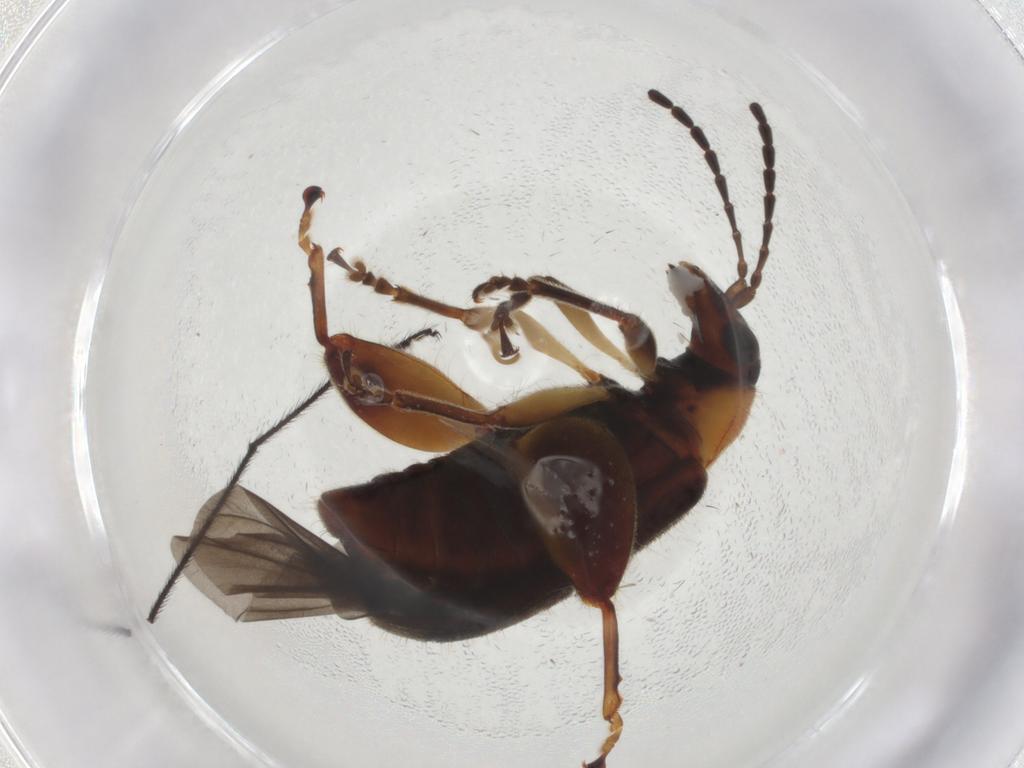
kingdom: Animalia
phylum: Arthropoda
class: Insecta
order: Coleoptera
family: Chrysomelidae
